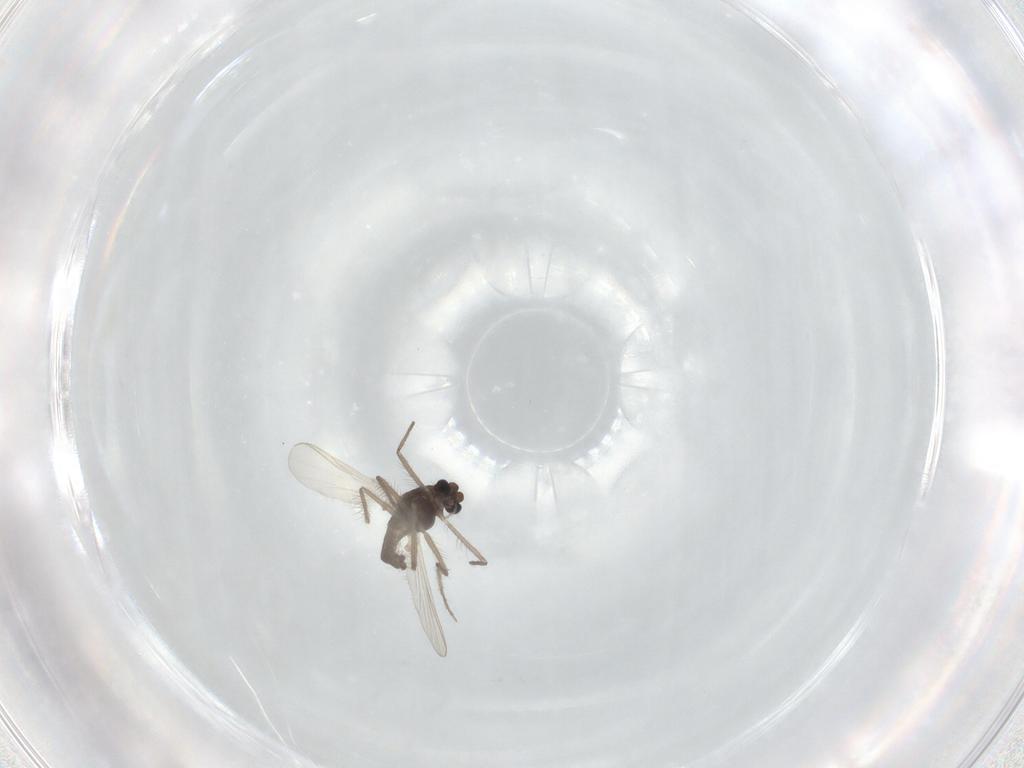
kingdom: Animalia
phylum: Arthropoda
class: Insecta
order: Diptera
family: Chironomidae
